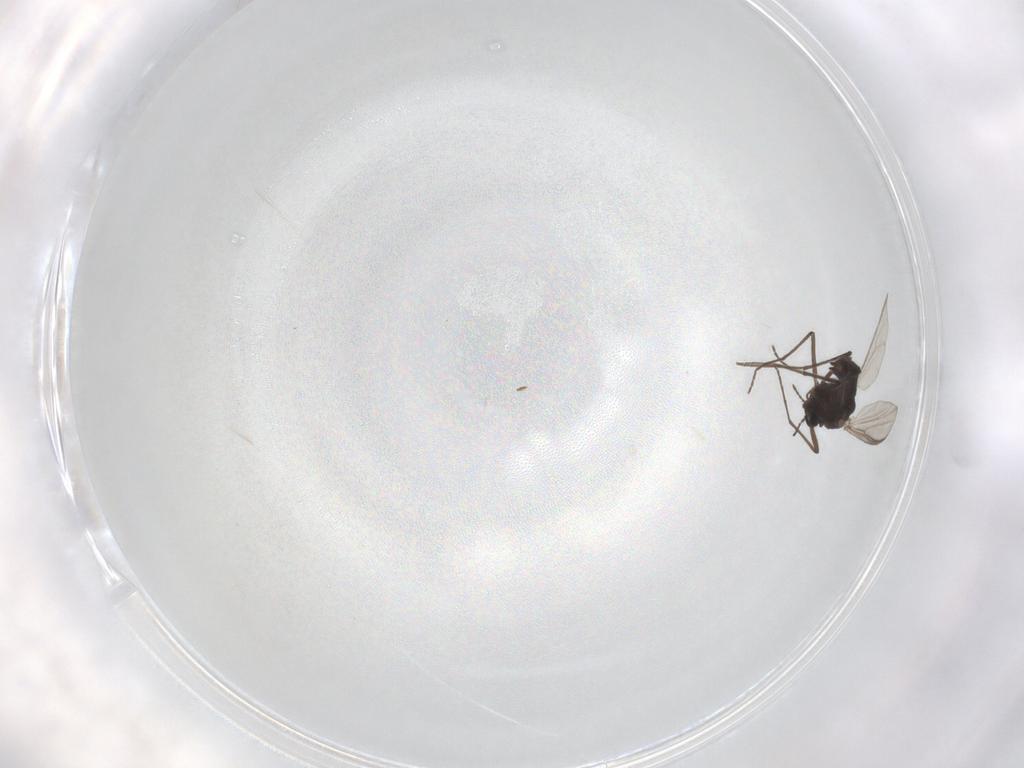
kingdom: Animalia
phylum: Arthropoda
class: Insecta
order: Diptera
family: Chironomidae
